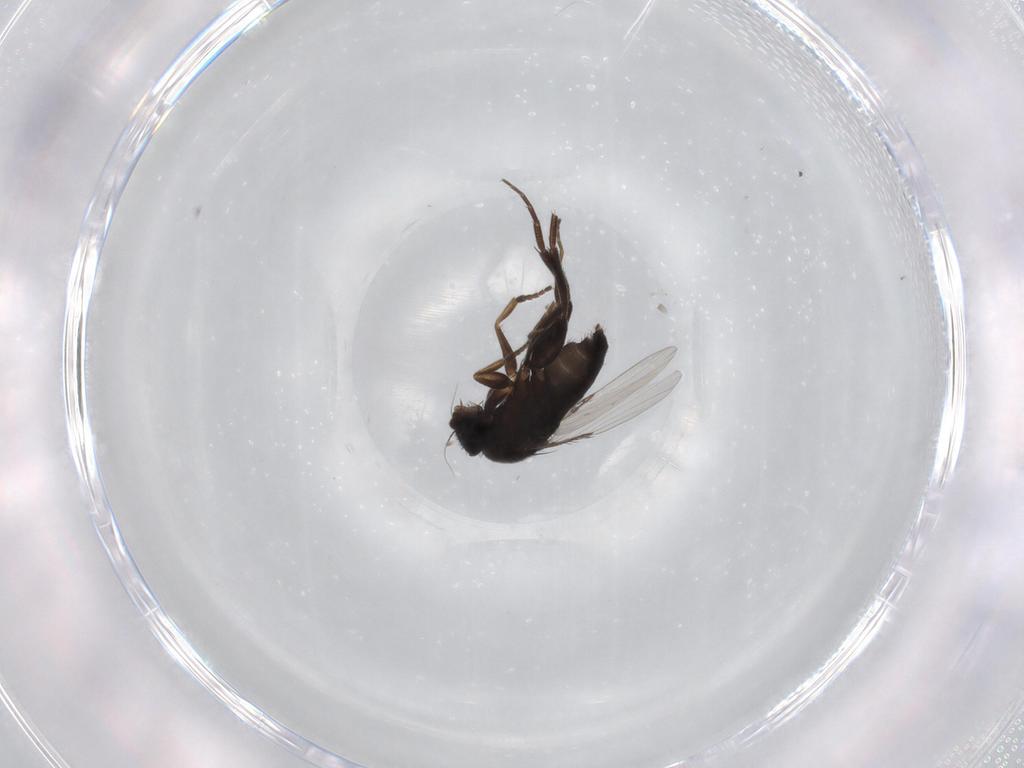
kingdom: Animalia
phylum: Arthropoda
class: Insecta
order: Diptera
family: Phoridae
